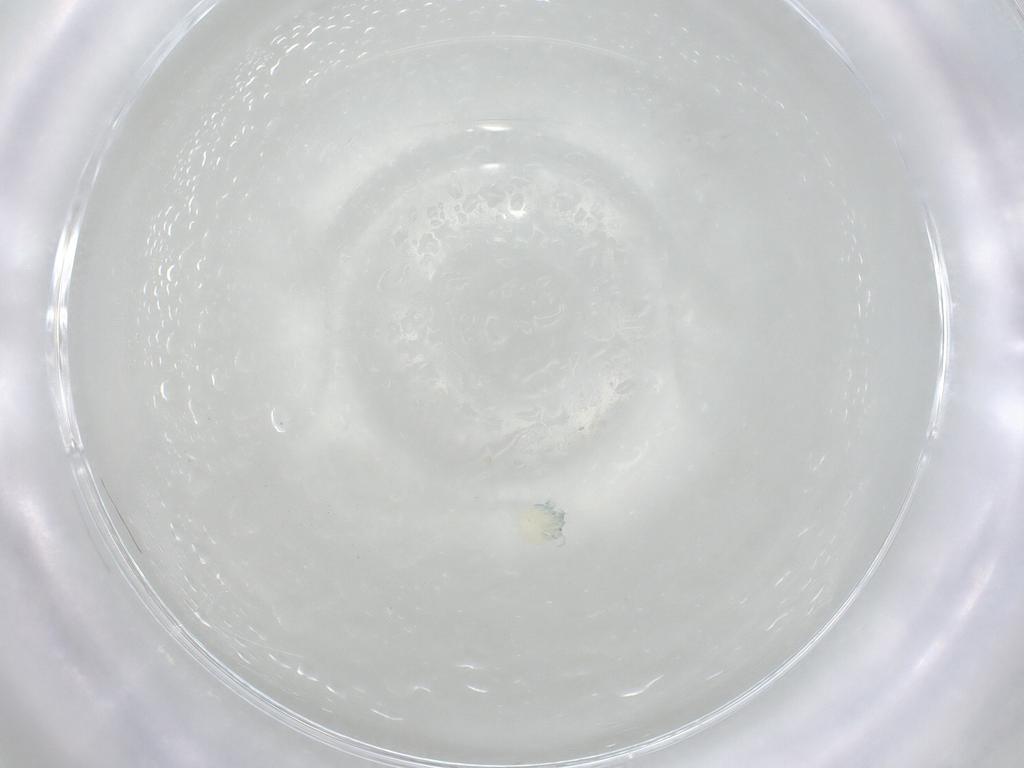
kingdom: Animalia
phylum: Arthropoda
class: Arachnida
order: Trombidiformes
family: Arrenuridae
